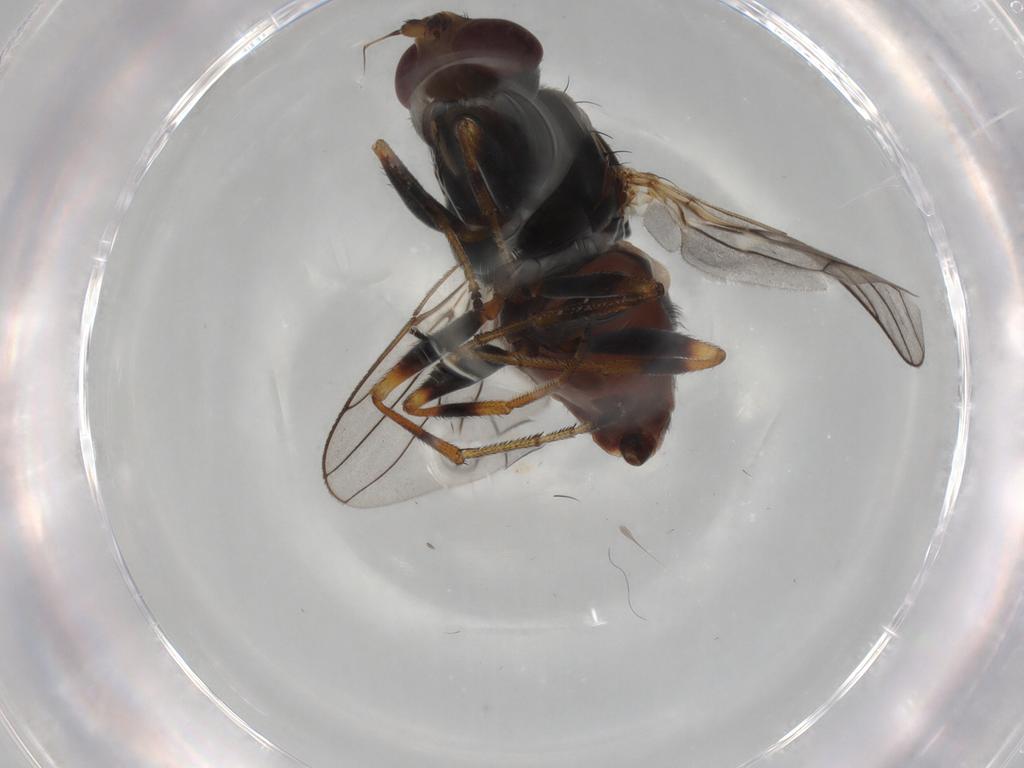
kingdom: Animalia
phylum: Arthropoda
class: Insecta
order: Diptera
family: Chloropidae
